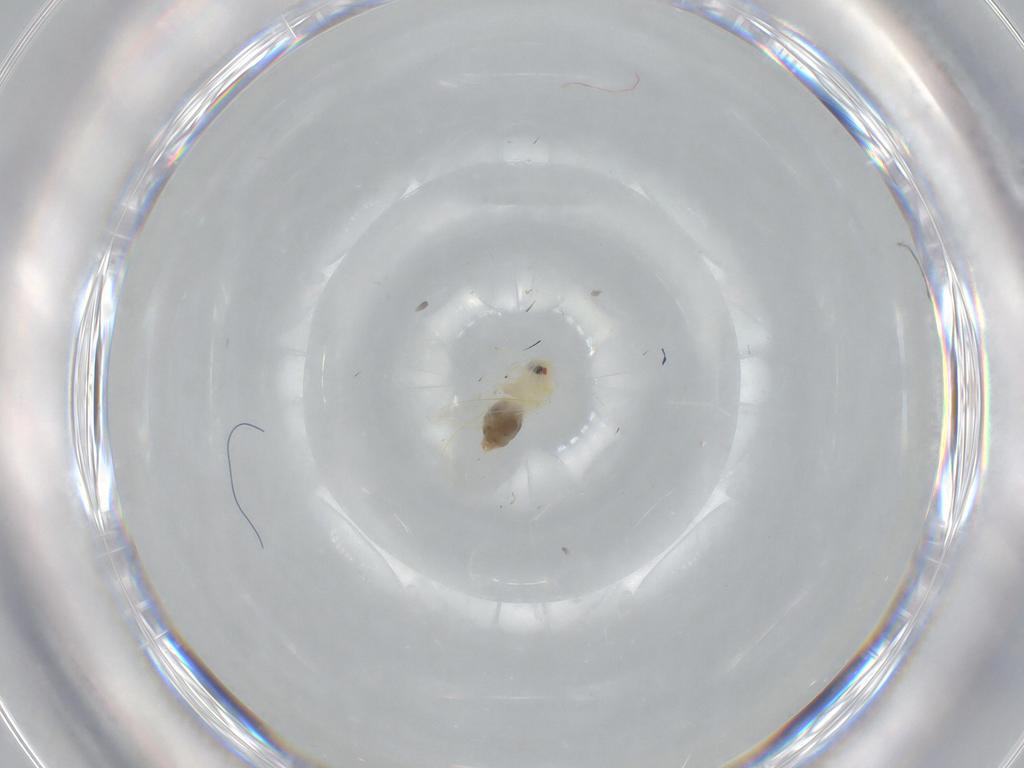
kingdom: Animalia
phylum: Arthropoda
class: Insecta
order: Hemiptera
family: Aleyrodidae
